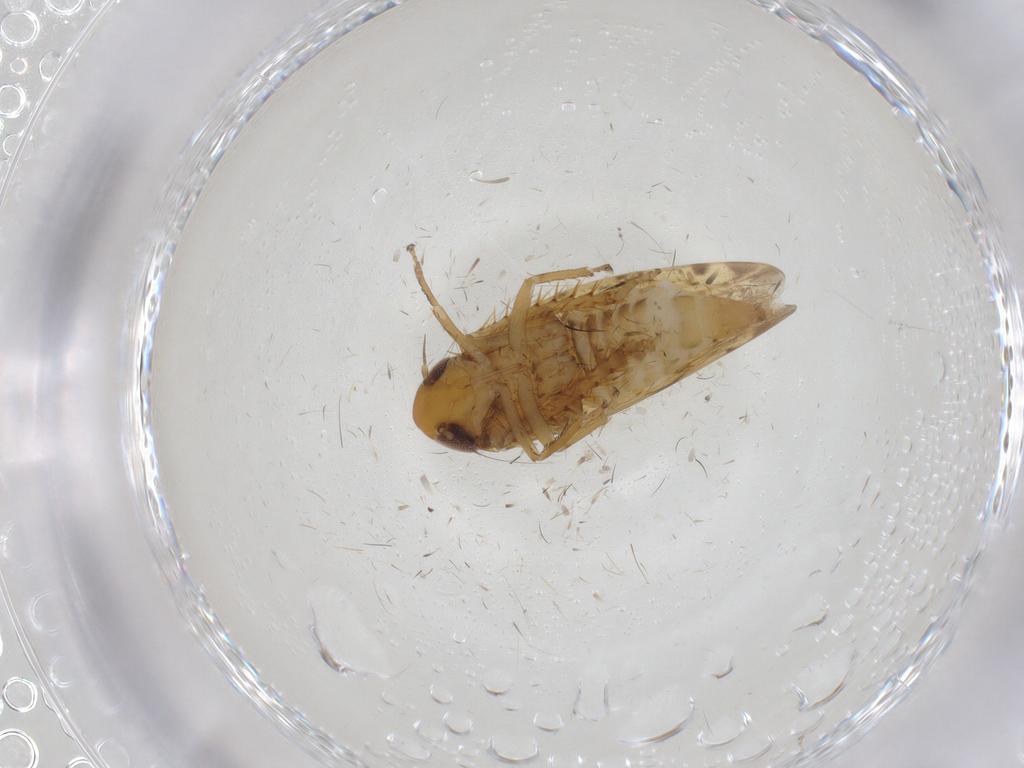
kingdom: Animalia
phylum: Arthropoda
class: Insecta
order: Hemiptera
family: Cicadellidae
